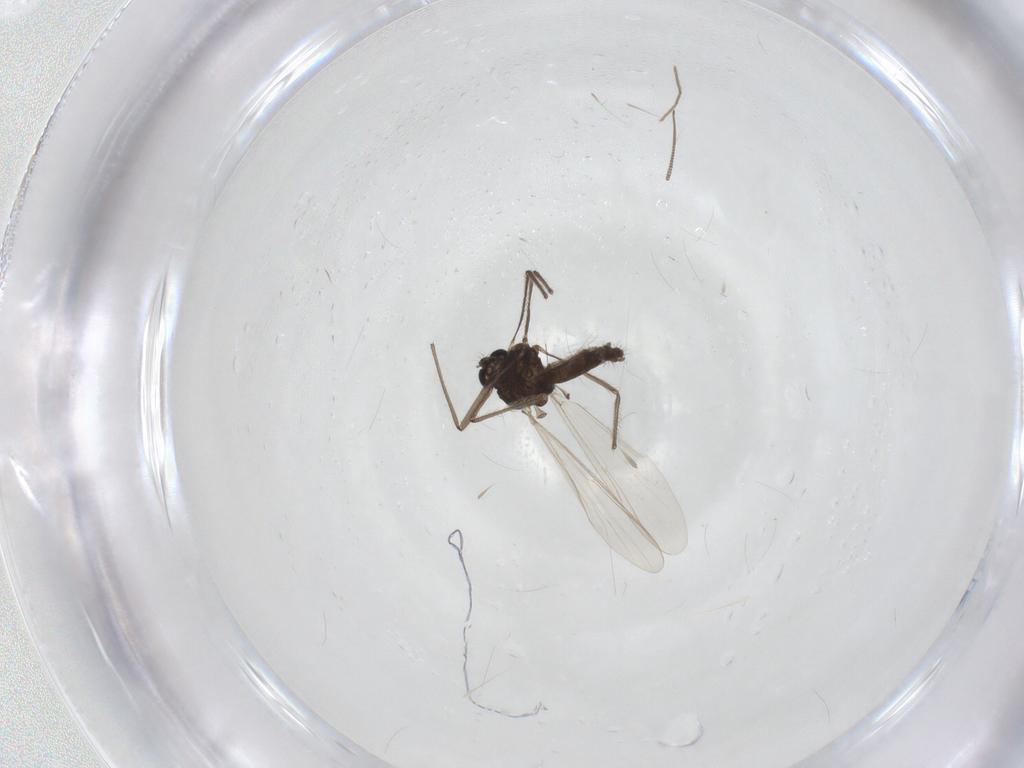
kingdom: Animalia
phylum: Arthropoda
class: Insecta
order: Diptera
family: Chironomidae
